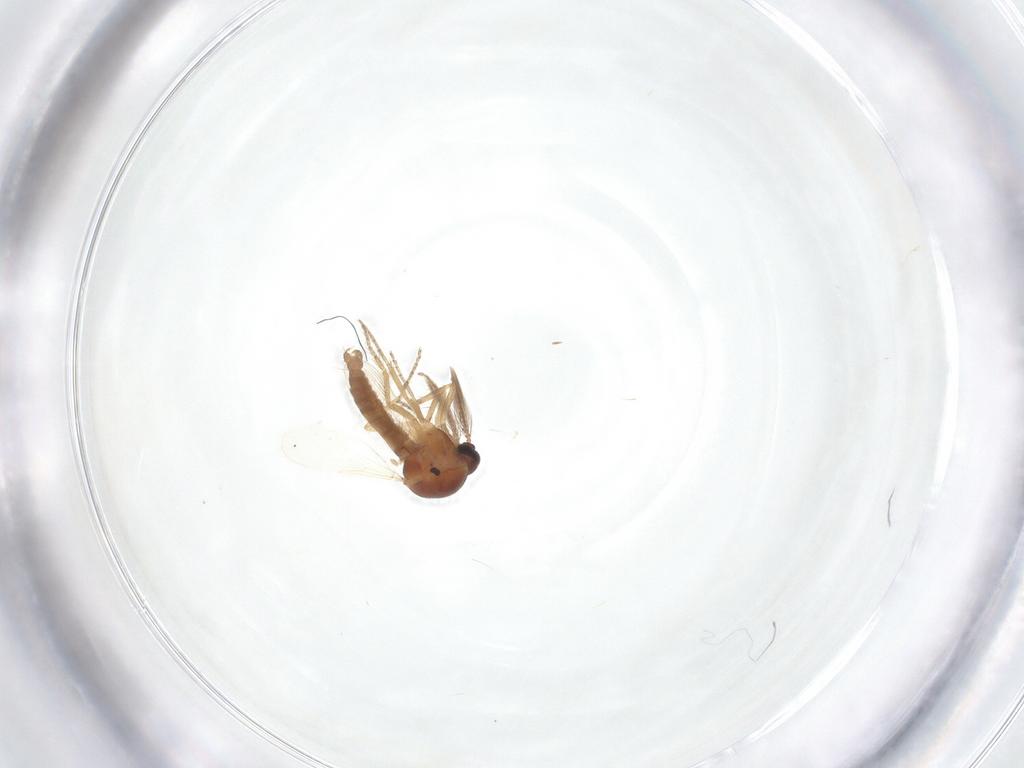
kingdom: Animalia
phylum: Arthropoda
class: Insecta
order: Diptera
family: Ceratopogonidae
